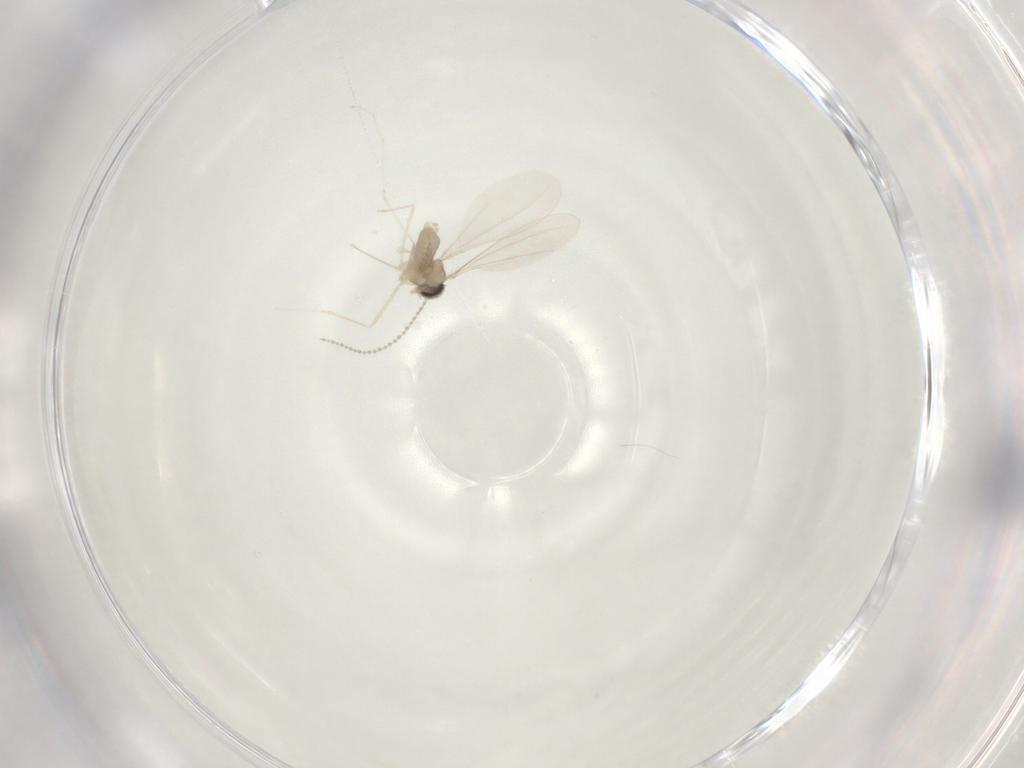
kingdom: Animalia
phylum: Arthropoda
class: Insecta
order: Diptera
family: Cecidomyiidae
